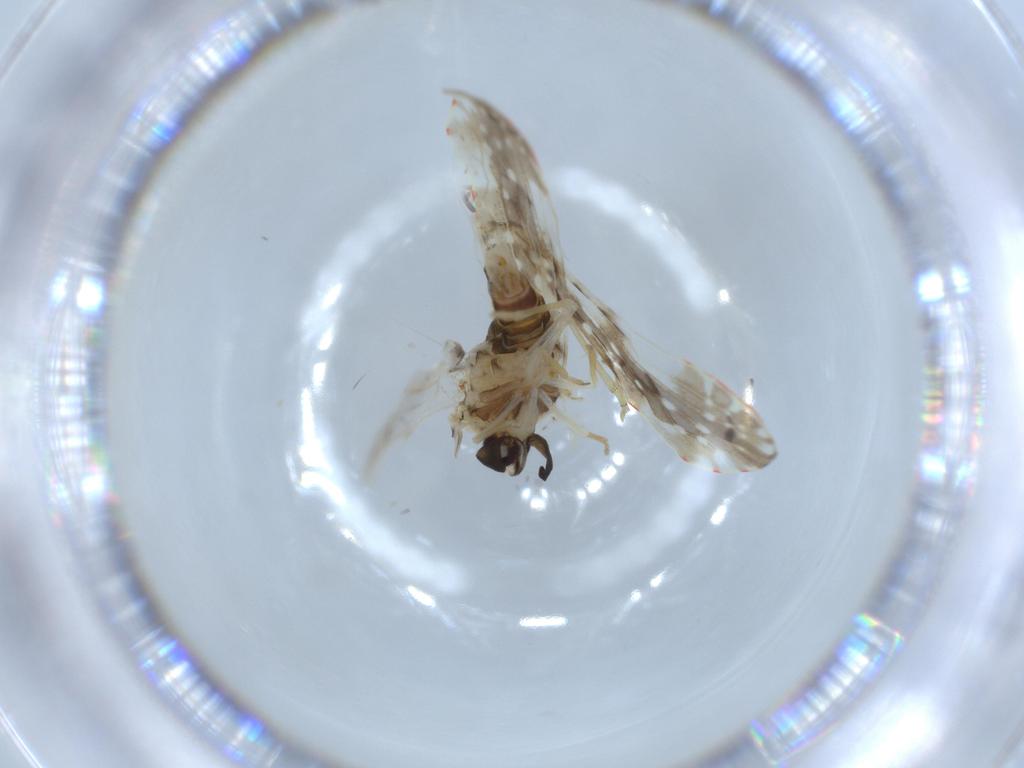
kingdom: Animalia
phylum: Arthropoda
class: Insecta
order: Hemiptera
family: Derbidae
